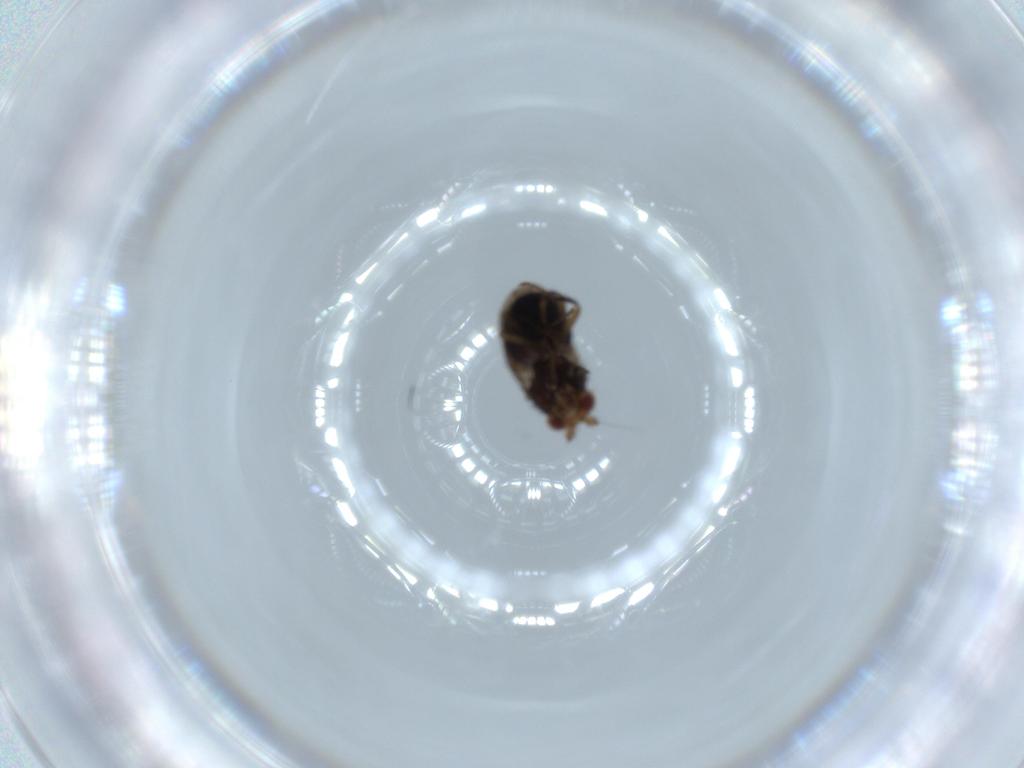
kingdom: Animalia
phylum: Arthropoda
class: Insecta
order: Diptera
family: Sphaeroceridae
